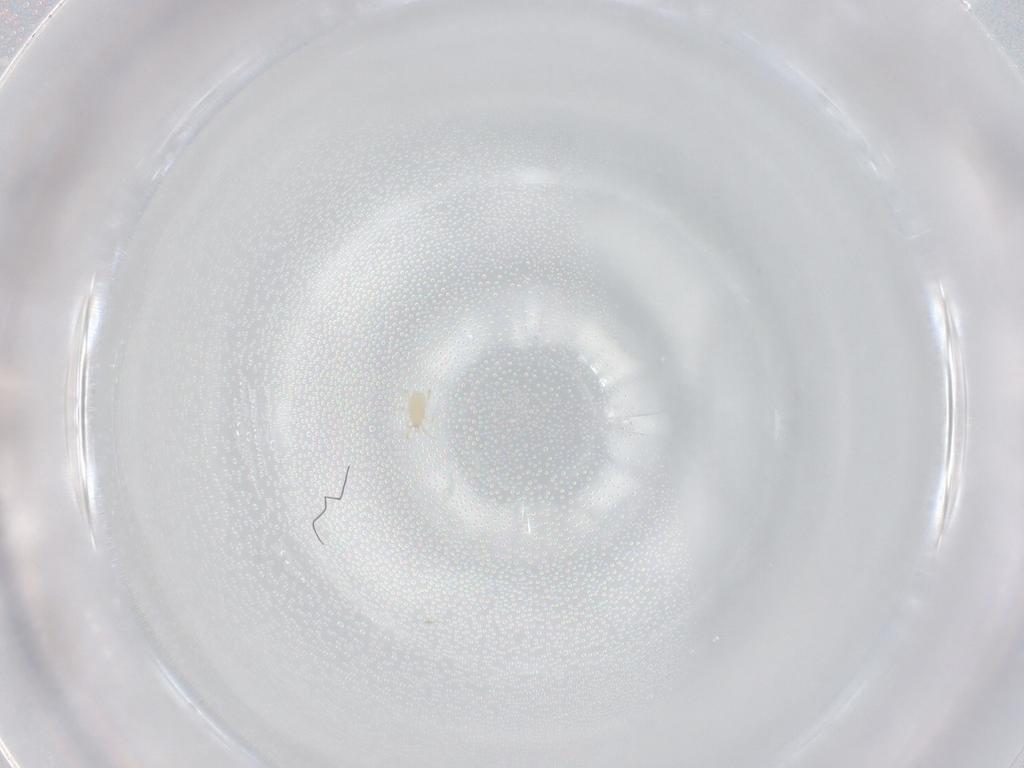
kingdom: Animalia
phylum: Arthropoda
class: Arachnida
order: Mesostigmata
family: Phytoseiidae
